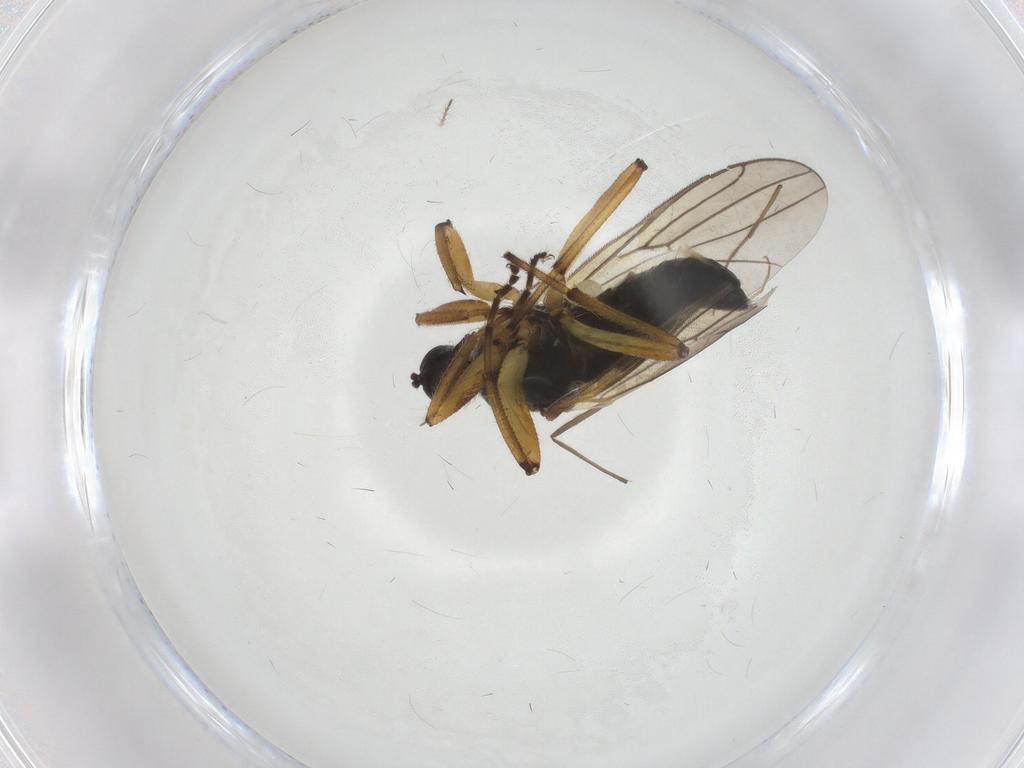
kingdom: Animalia
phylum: Arthropoda
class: Insecta
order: Diptera
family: Hybotidae
